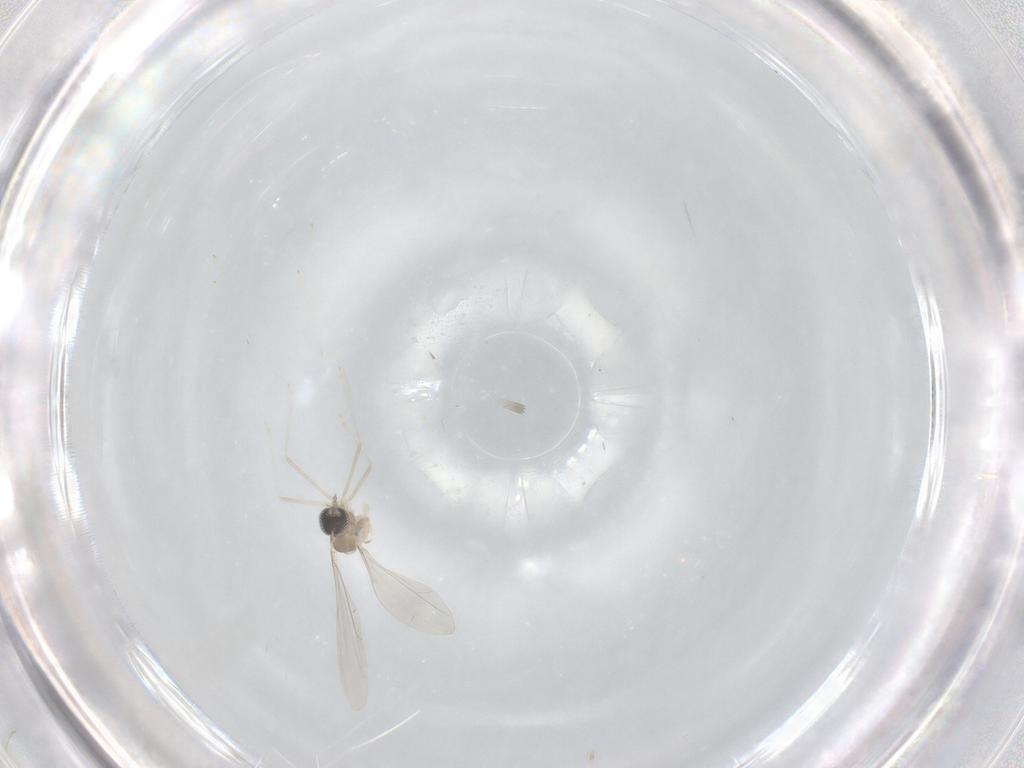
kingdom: Animalia
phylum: Arthropoda
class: Insecta
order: Diptera
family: Cecidomyiidae
